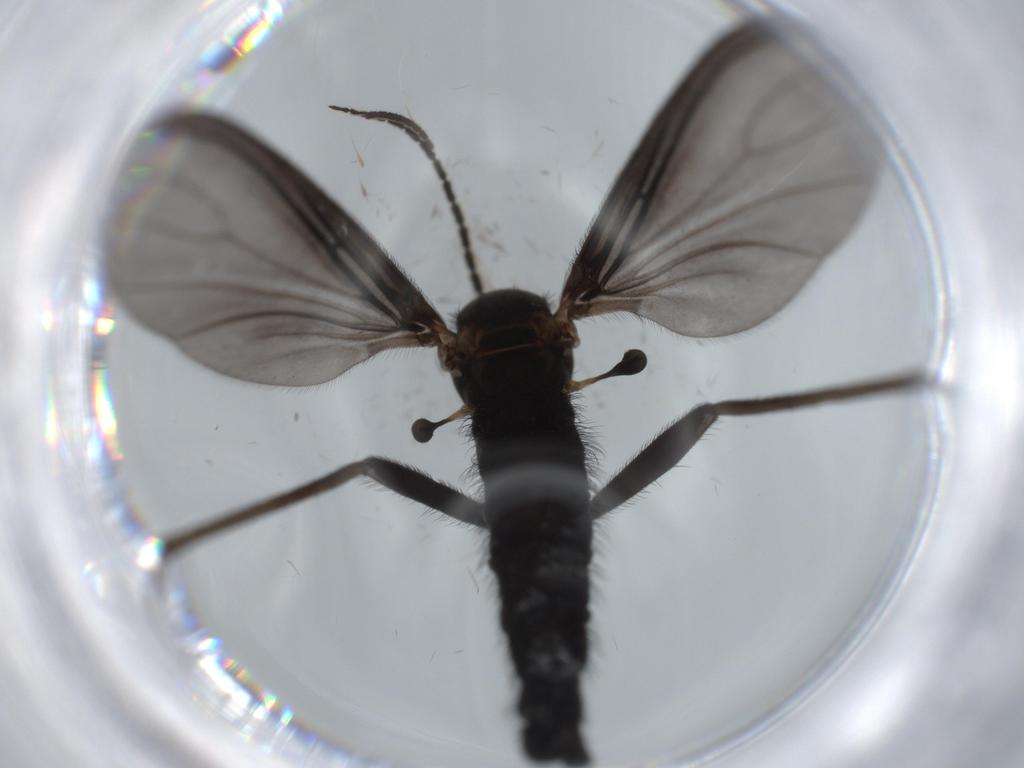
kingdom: Animalia
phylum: Arthropoda
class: Insecta
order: Diptera
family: Sciaridae
